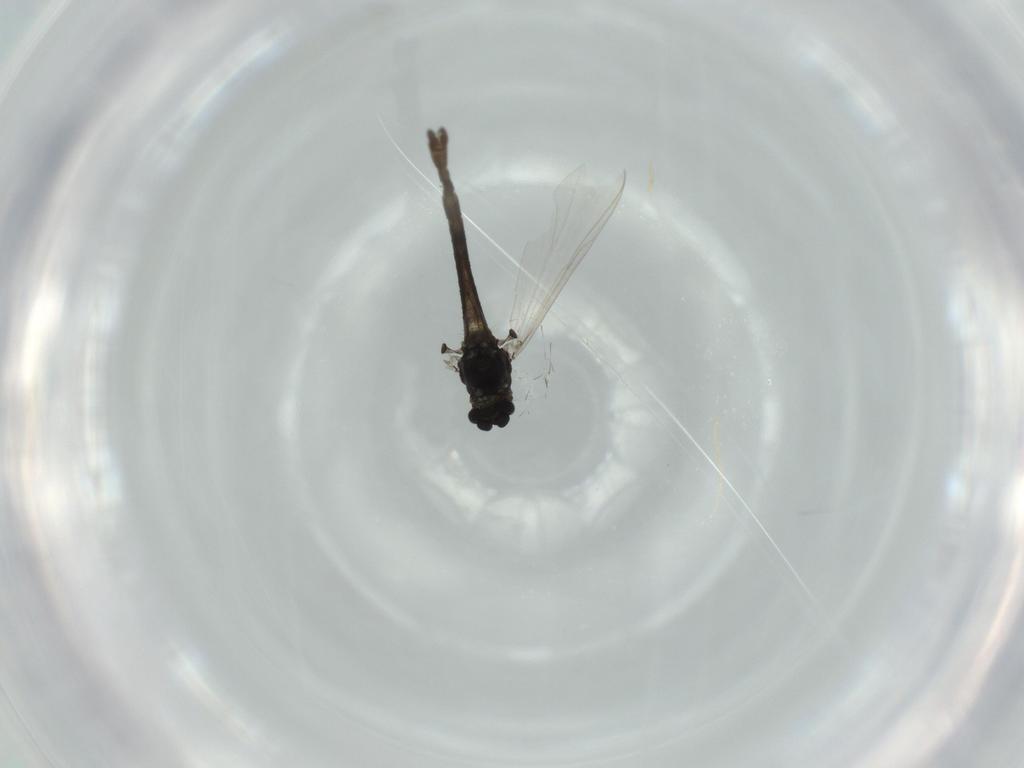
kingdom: Animalia
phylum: Arthropoda
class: Insecta
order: Diptera
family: Chironomidae
